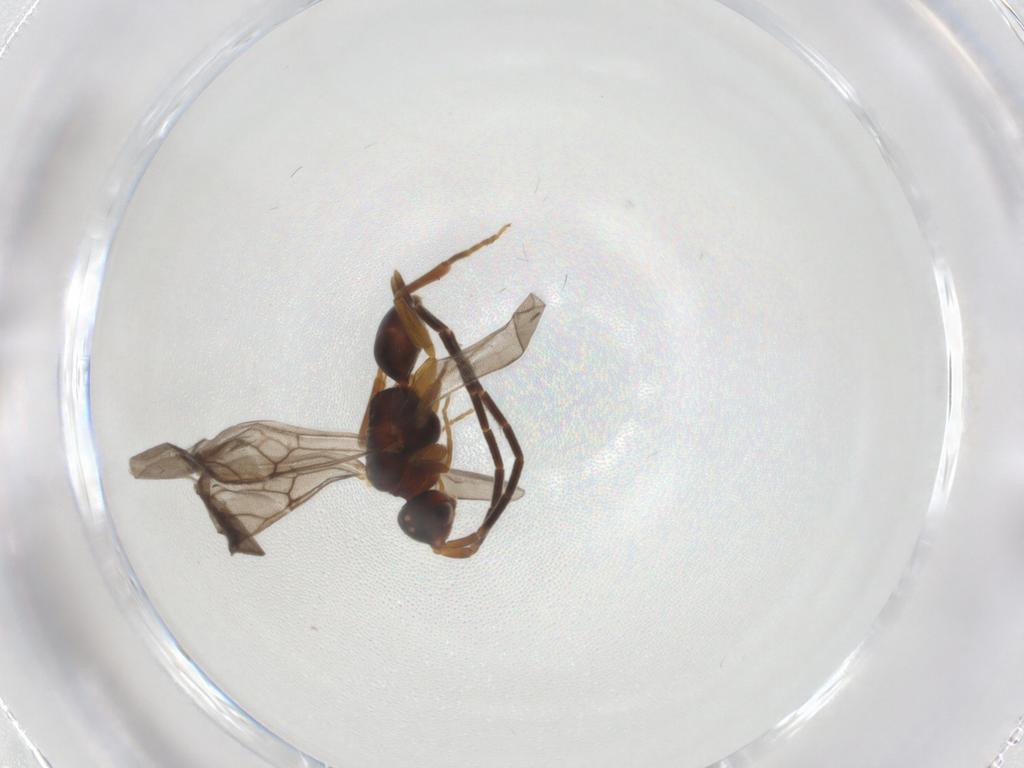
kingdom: Animalia
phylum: Arthropoda
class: Insecta
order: Hymenoptera
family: Embolemidae
